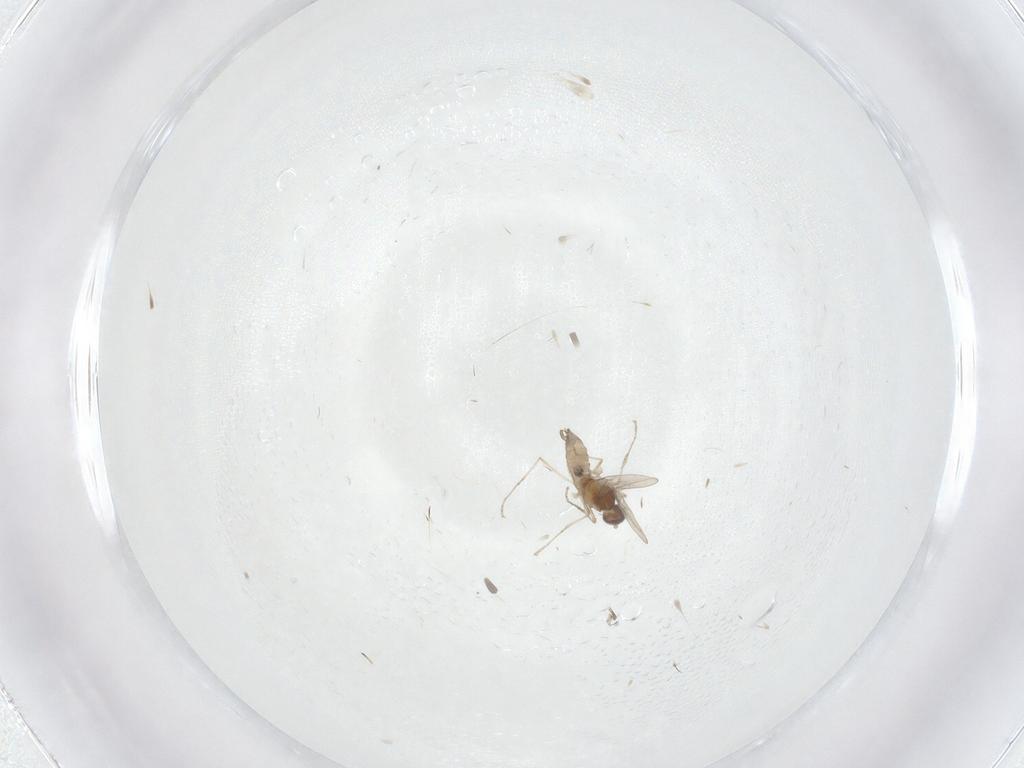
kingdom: Animalia
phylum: Arthropoda
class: Insecta
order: Diptera
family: Cecidomyiidae
